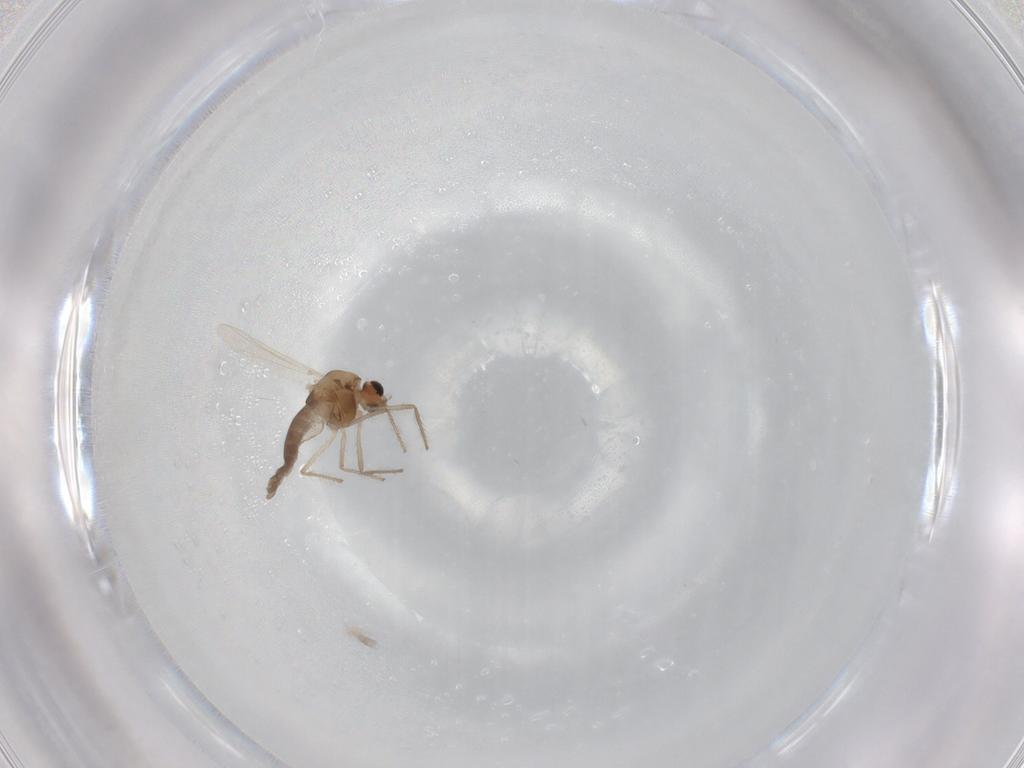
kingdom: Animalia
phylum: Arthropoda
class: Insecta
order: Diptera
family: Chironomidae
